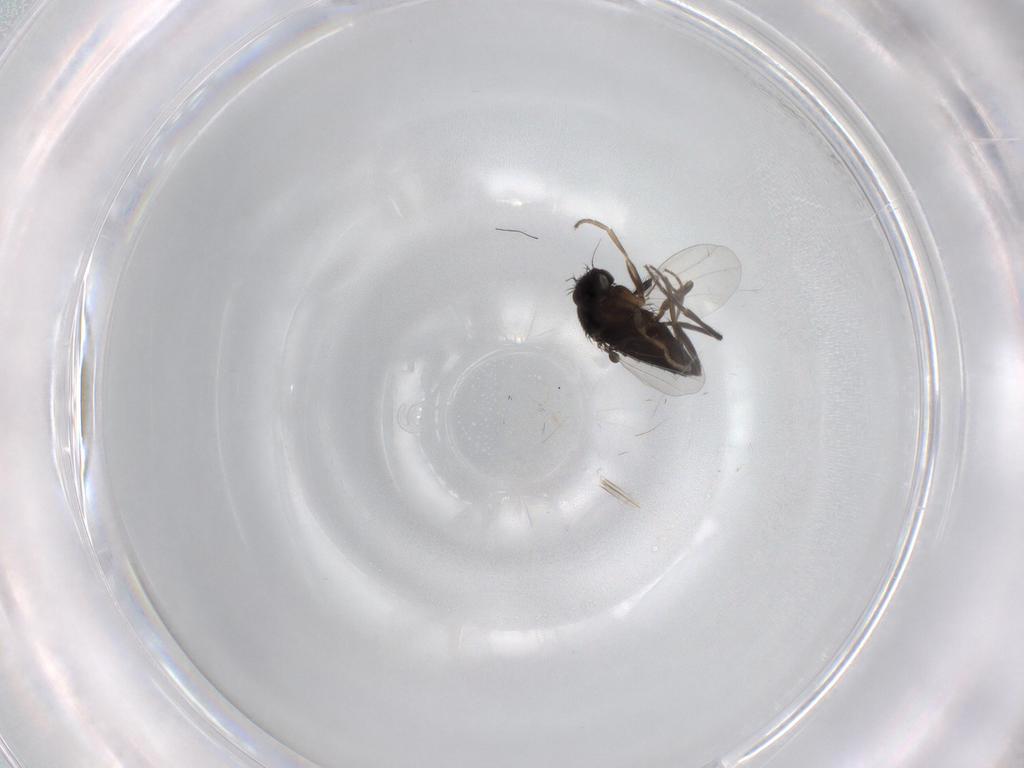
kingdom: Animalia
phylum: Arthropoda
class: Insecta
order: Diptera
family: Phoridae
